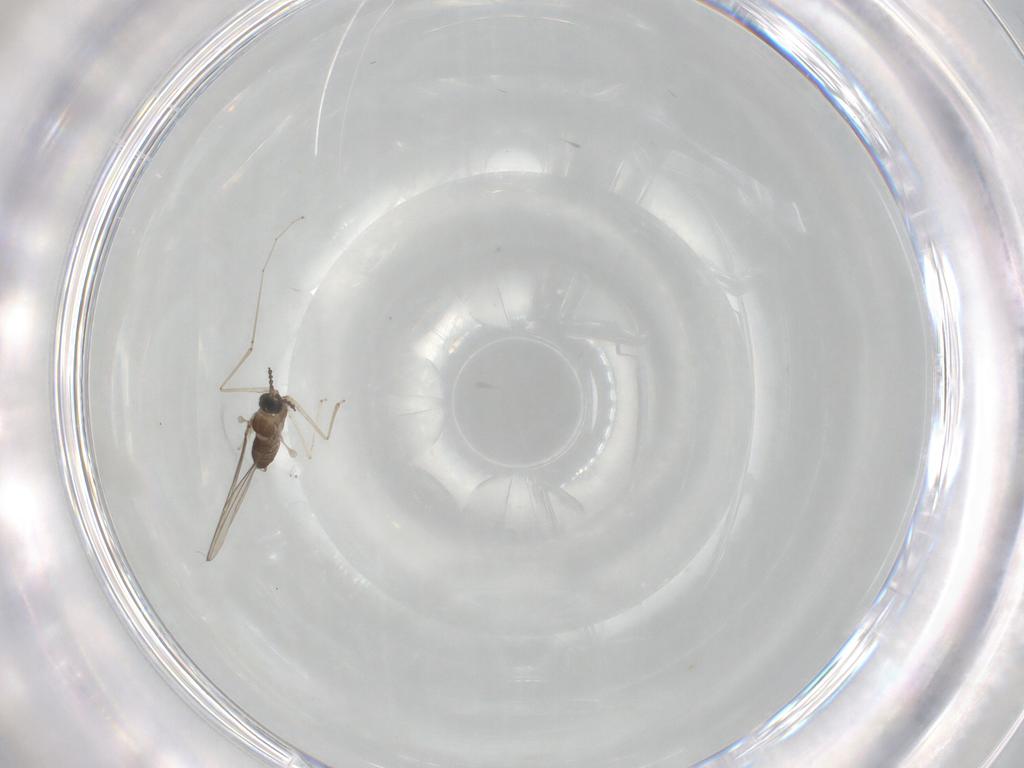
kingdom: Animalia
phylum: Arthropoda
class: Insecta
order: Diptera
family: Cecidomyiidae
